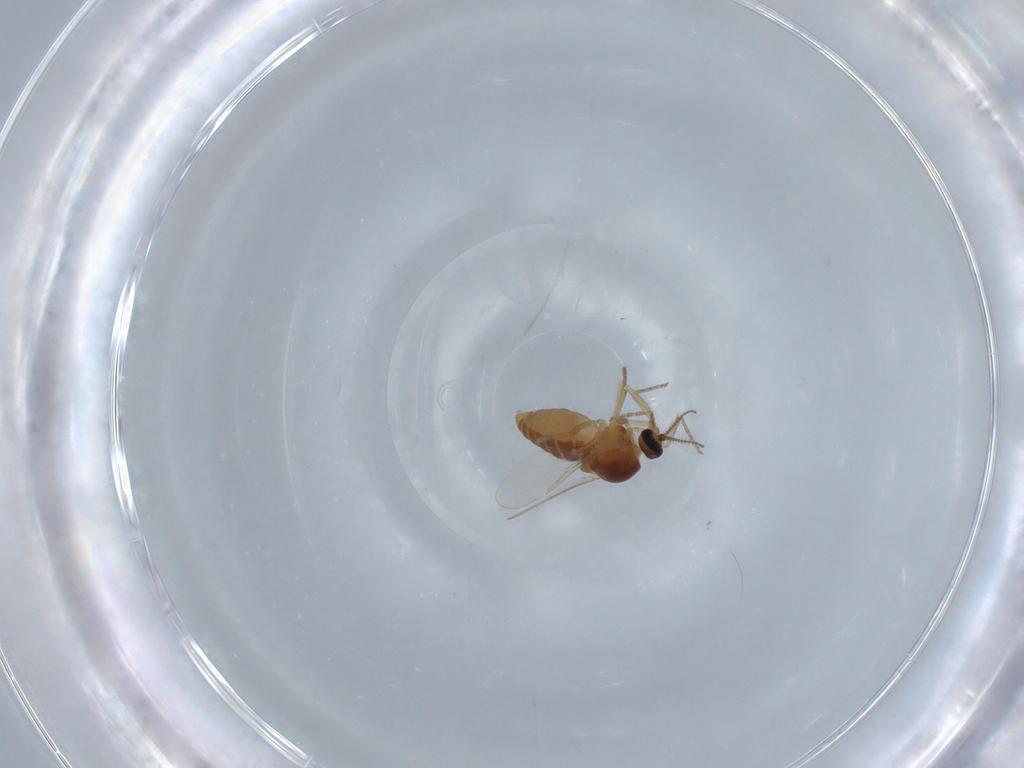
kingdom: Animalia
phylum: Arthropoda
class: Insecta
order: Diptera
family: Ceratopogonidae
